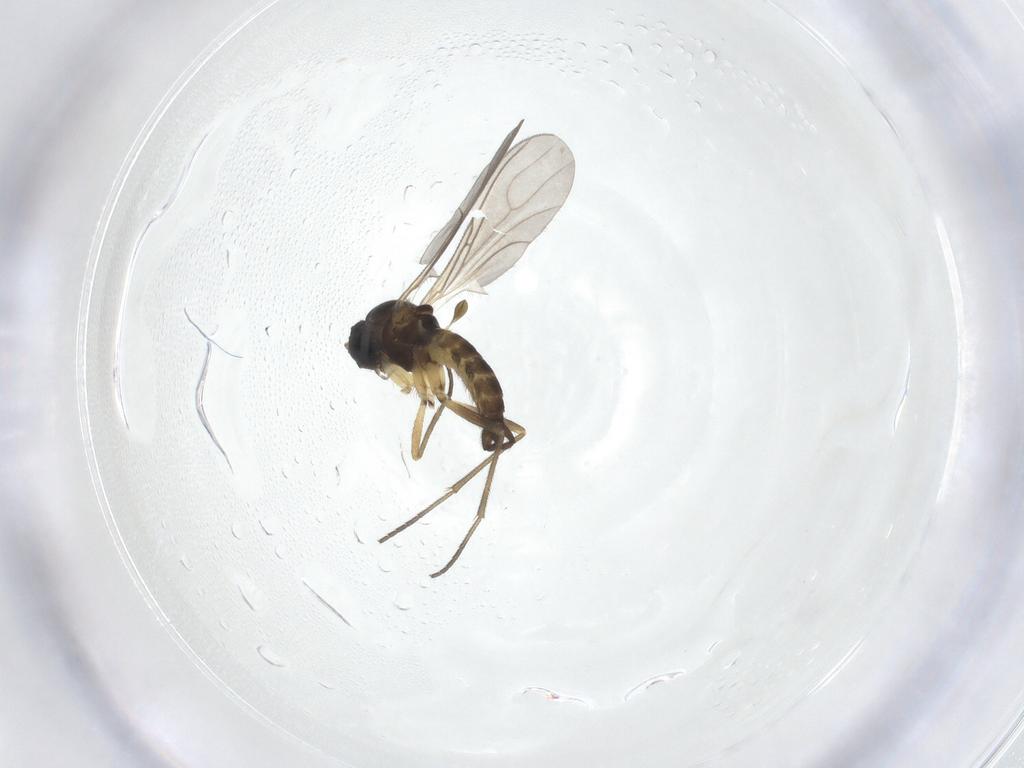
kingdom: Animalia
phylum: Arthropoda
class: Insecta
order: Diptera
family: Sciaridae
